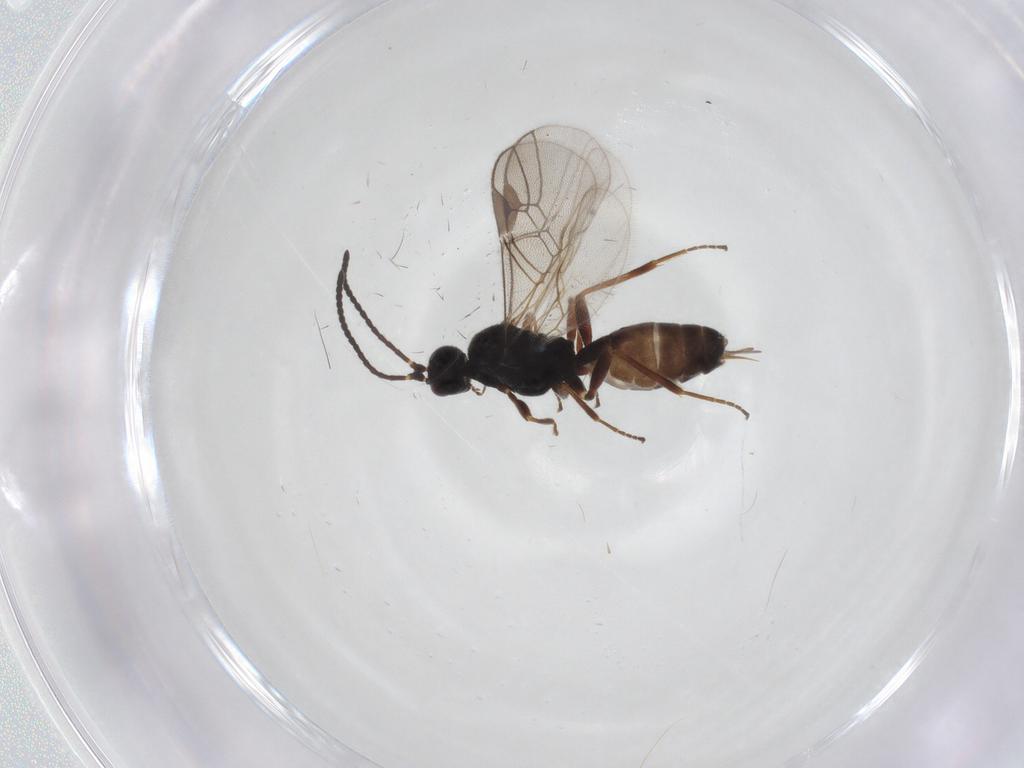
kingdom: Animalia
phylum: Arthropoda
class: Insecta
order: Hymenoptera
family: Braconidae
